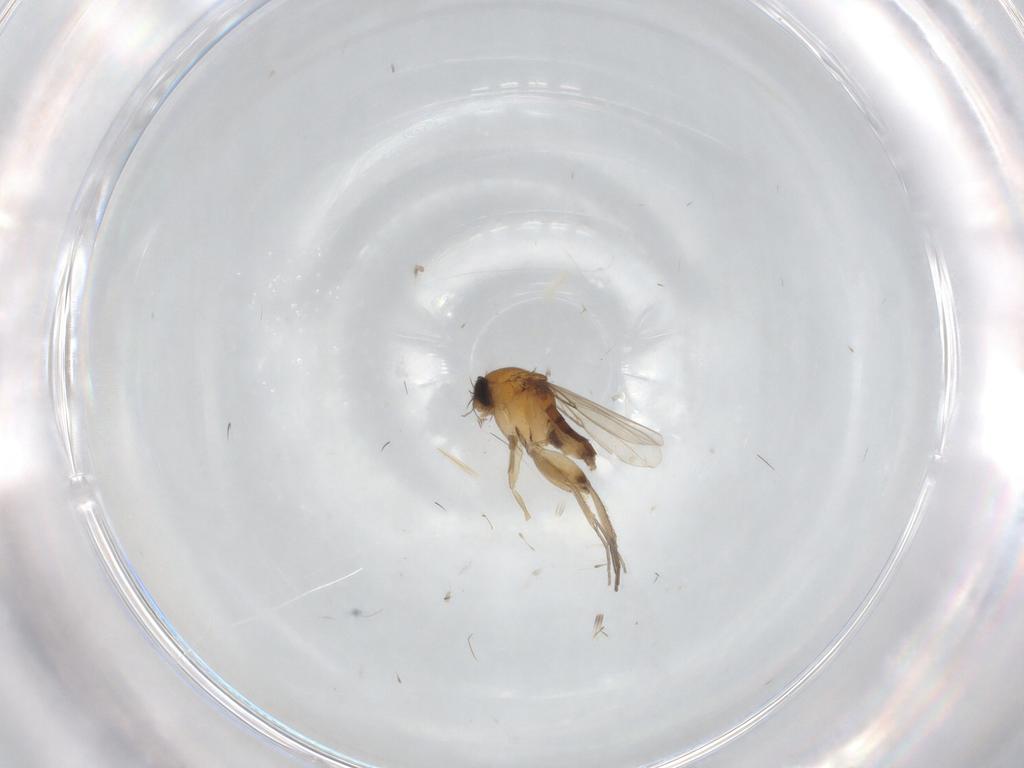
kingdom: Animalia
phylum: Arthropoda
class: Insecta
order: Diptera
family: Phoridae
